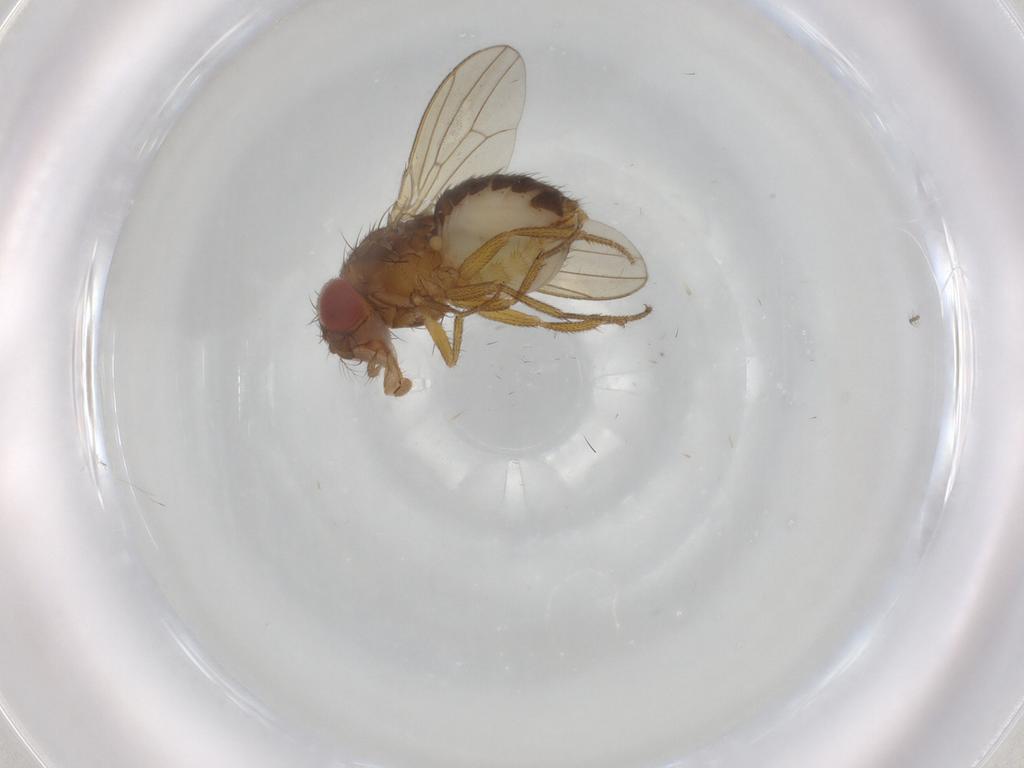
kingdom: Animalia
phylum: Arthropoda
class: Insecta
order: Diptera
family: Drosophilidae
